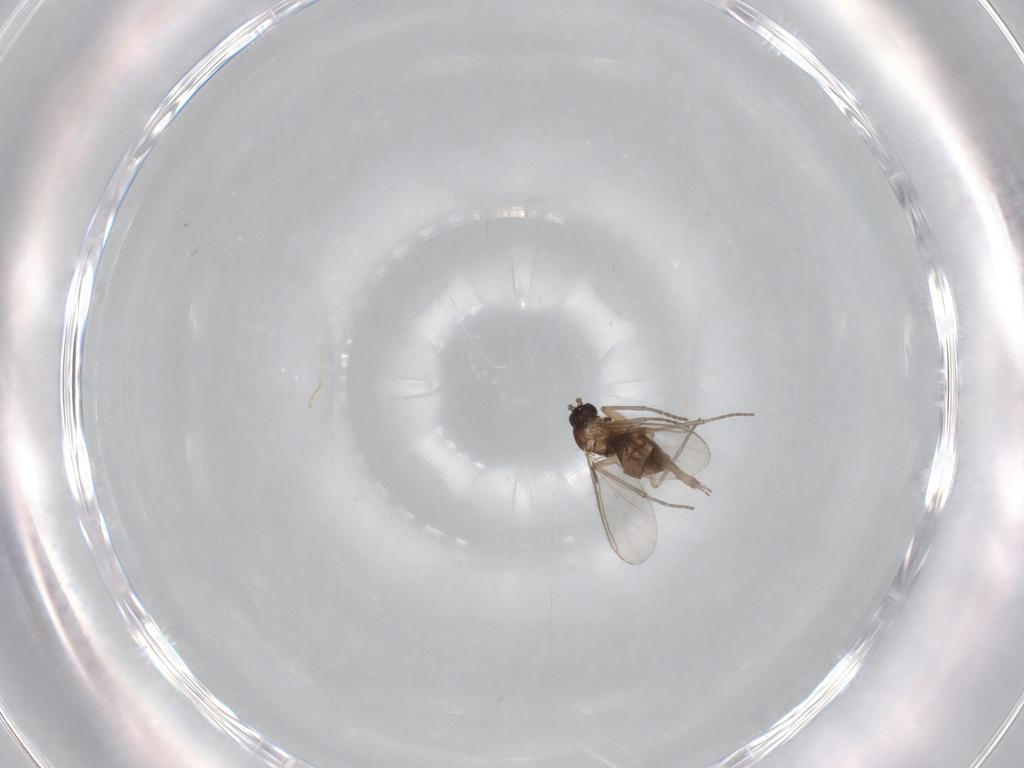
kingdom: Animalia
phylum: Arthropoda
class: Insecta
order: Diptera
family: Sciaridae
